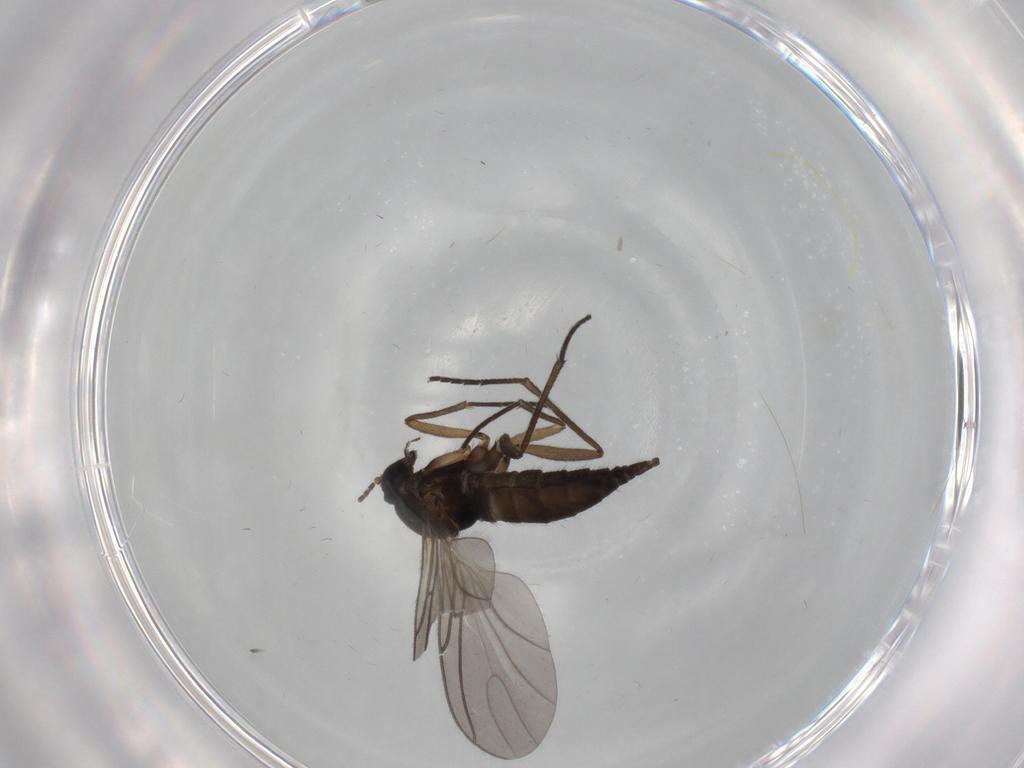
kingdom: Animalia
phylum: Arthropoda
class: Insecta
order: Diptera
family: Sciaridae
